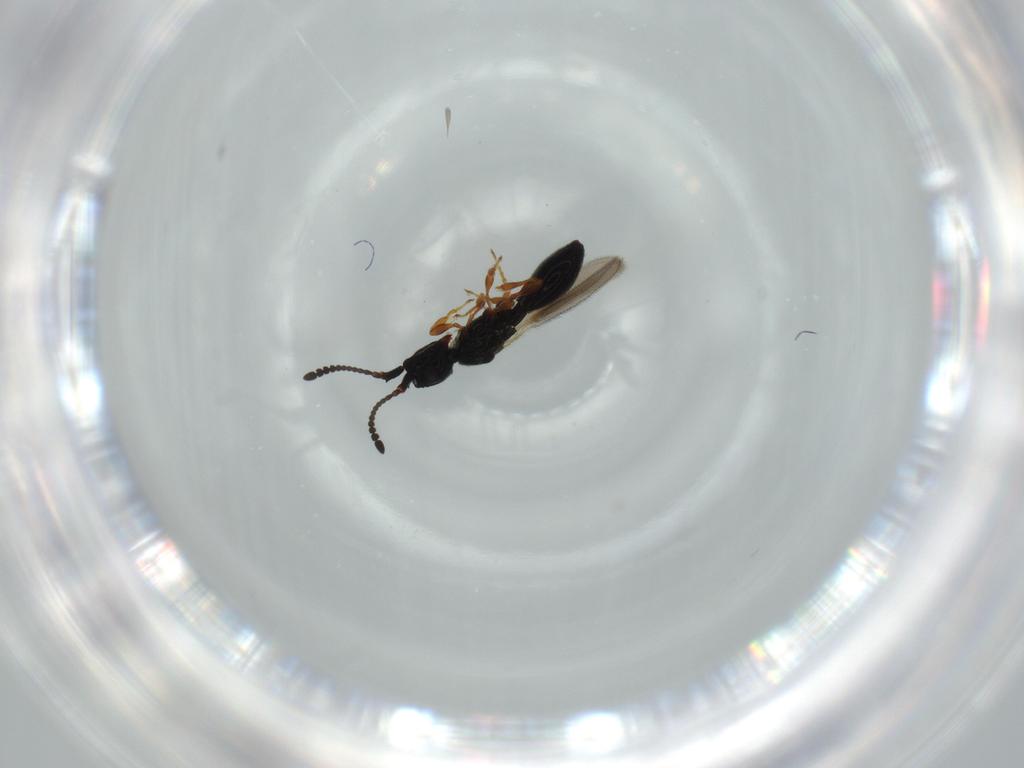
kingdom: Animalia
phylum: Arthropoda
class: Insecta
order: Hymenoptera
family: Diapriidae
